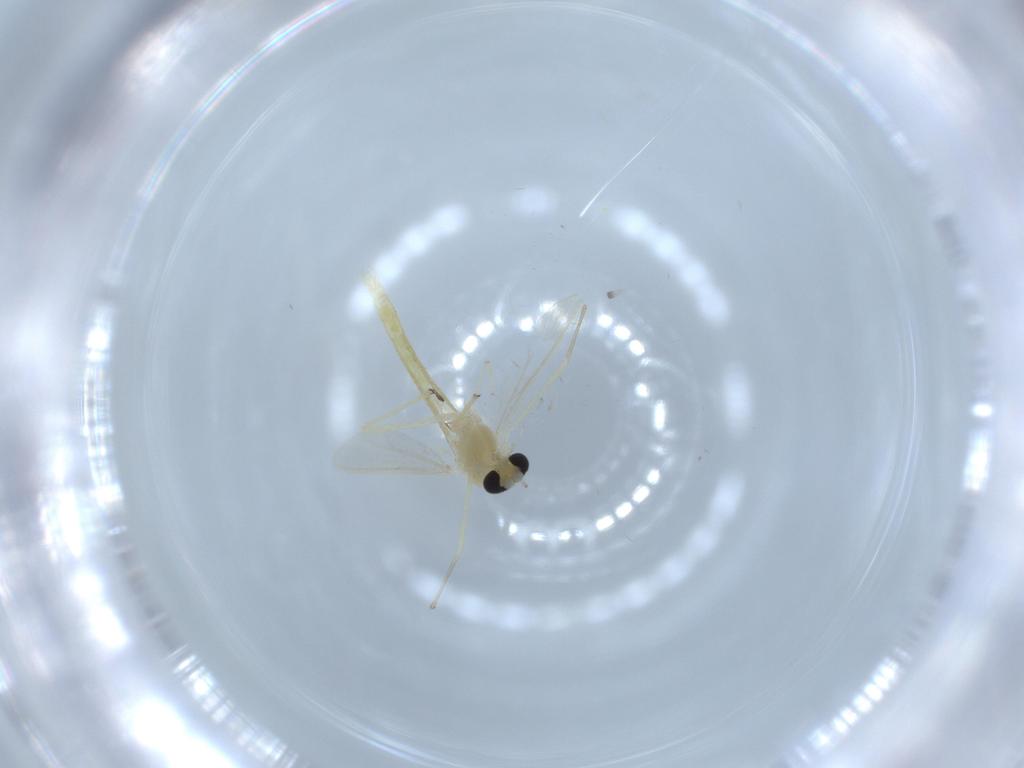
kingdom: Animalia
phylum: Arthropoda
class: Insecta
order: Diptera
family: Chironomidae
